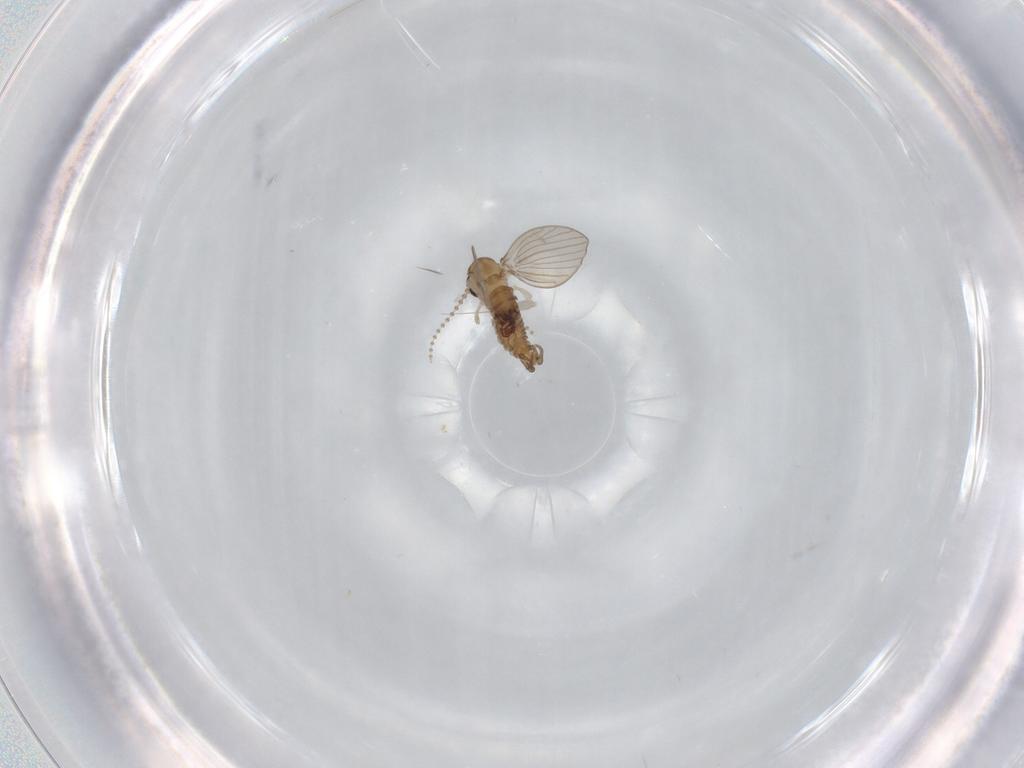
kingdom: Animalia
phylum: Arthropoda
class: Insecta
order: Diptera
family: Psychodidae
